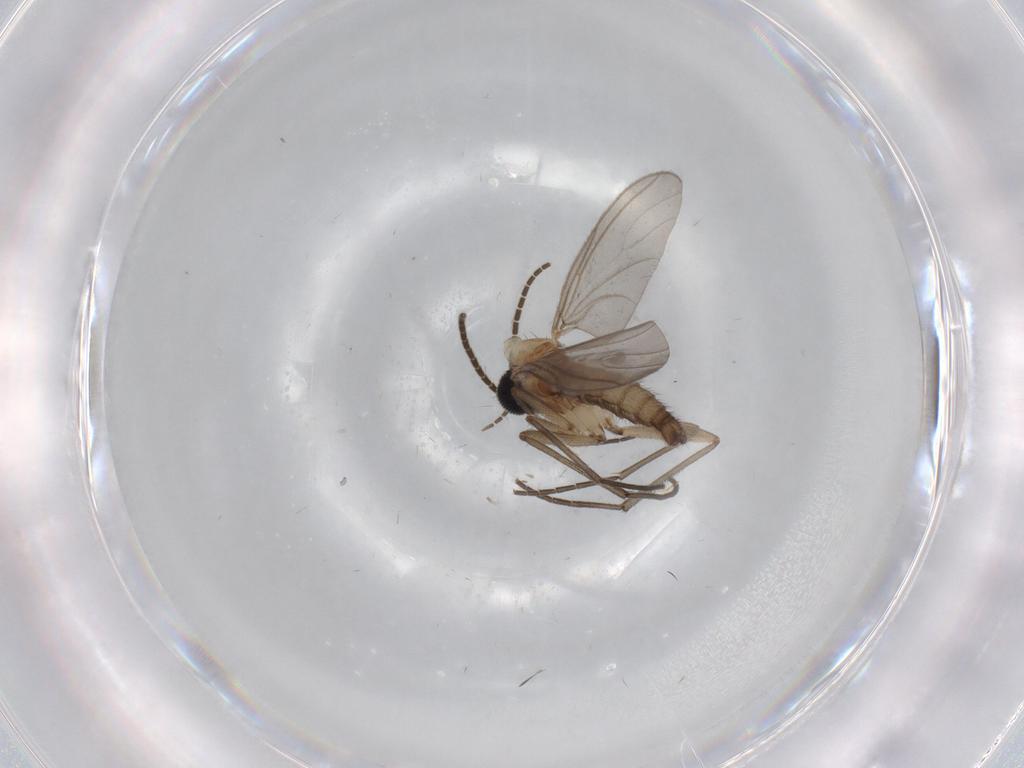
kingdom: Animalia
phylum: Arthropoda
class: Insecta
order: Diptera
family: Sciaridae
